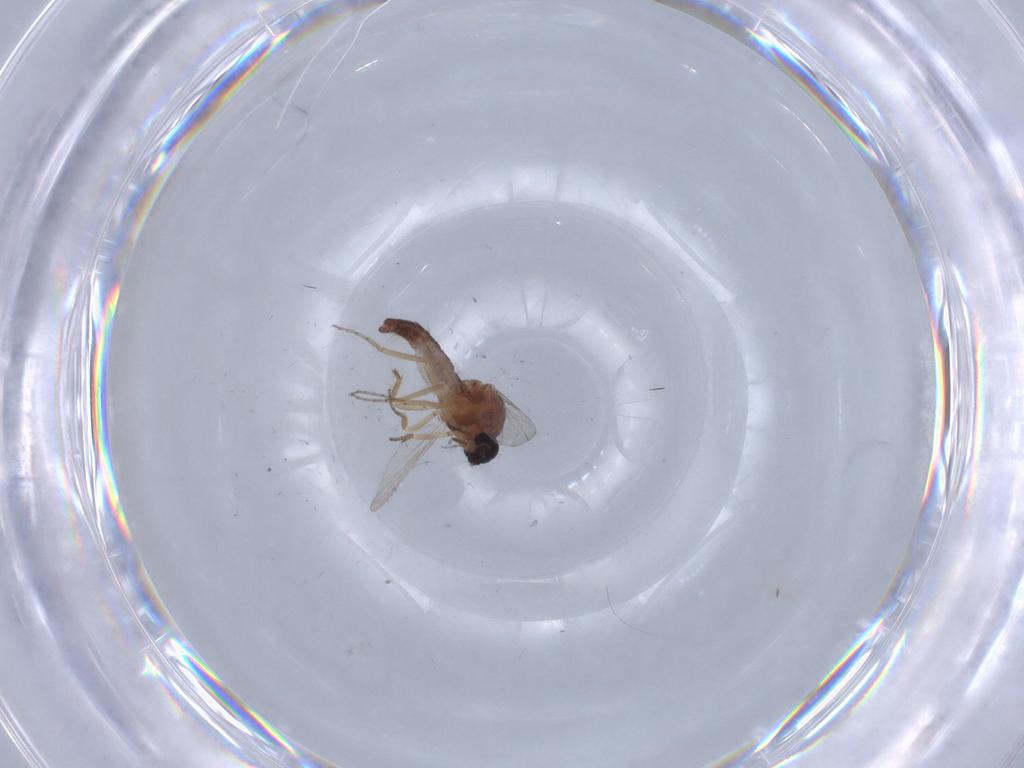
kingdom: Animalia
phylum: Arthropoda
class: Insecta
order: Diptera
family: Ceratopogonidae
